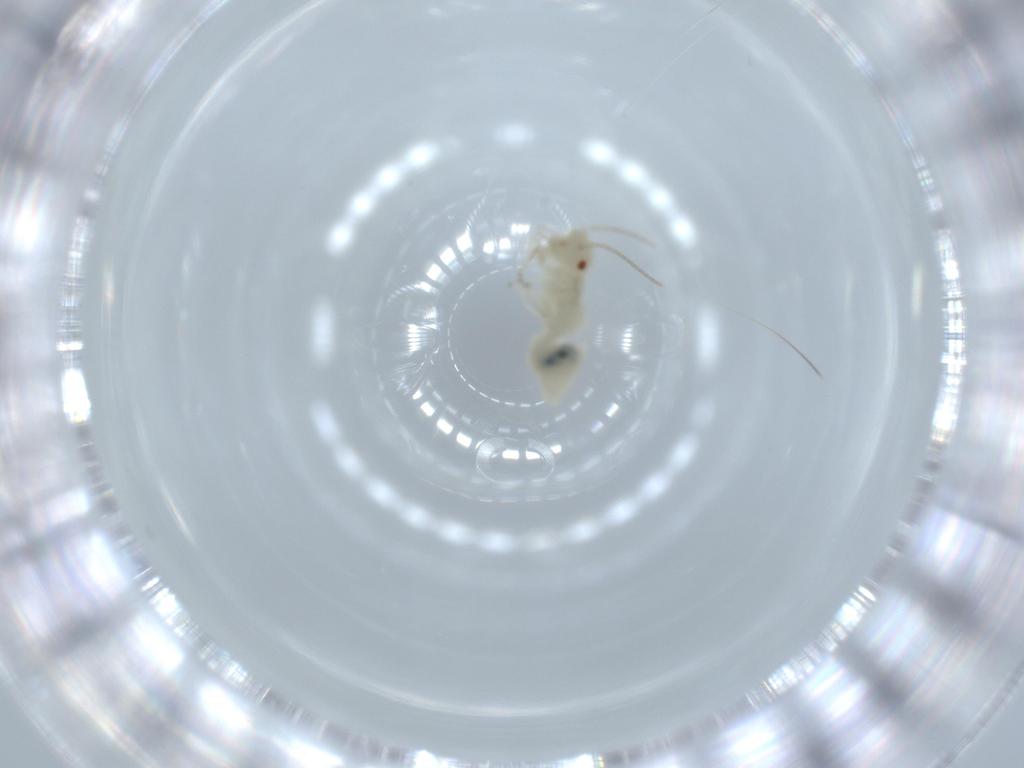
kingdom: Animalia
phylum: Arthropoda
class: Insecta
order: Psocodea
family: Caeciliusidae
